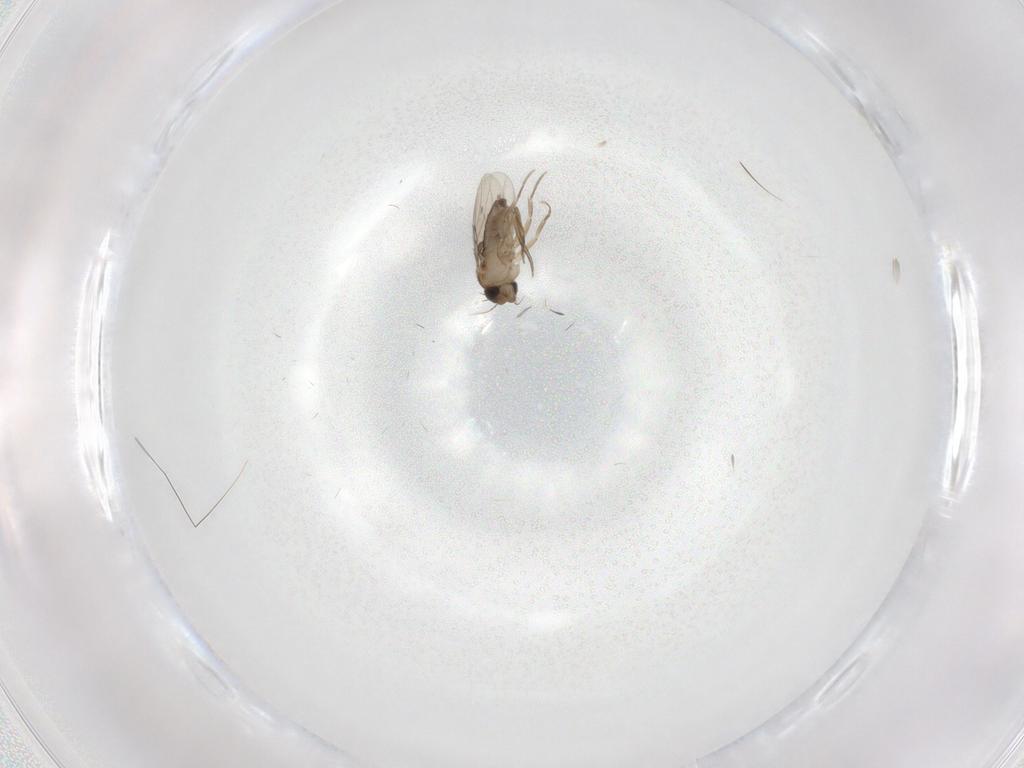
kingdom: Animalia
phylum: Arthropoda
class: Insecta
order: Diptera
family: Phoridae
